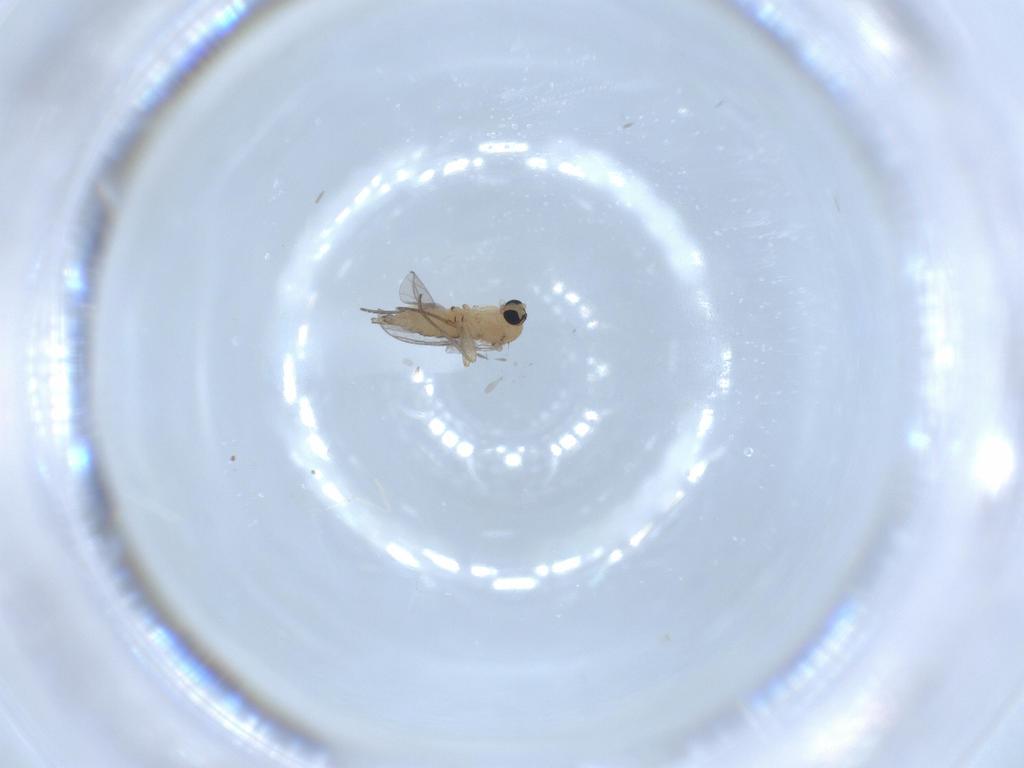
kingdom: Animalia
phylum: Arthropoda
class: Insecta
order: Diptera
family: Sciaridae
